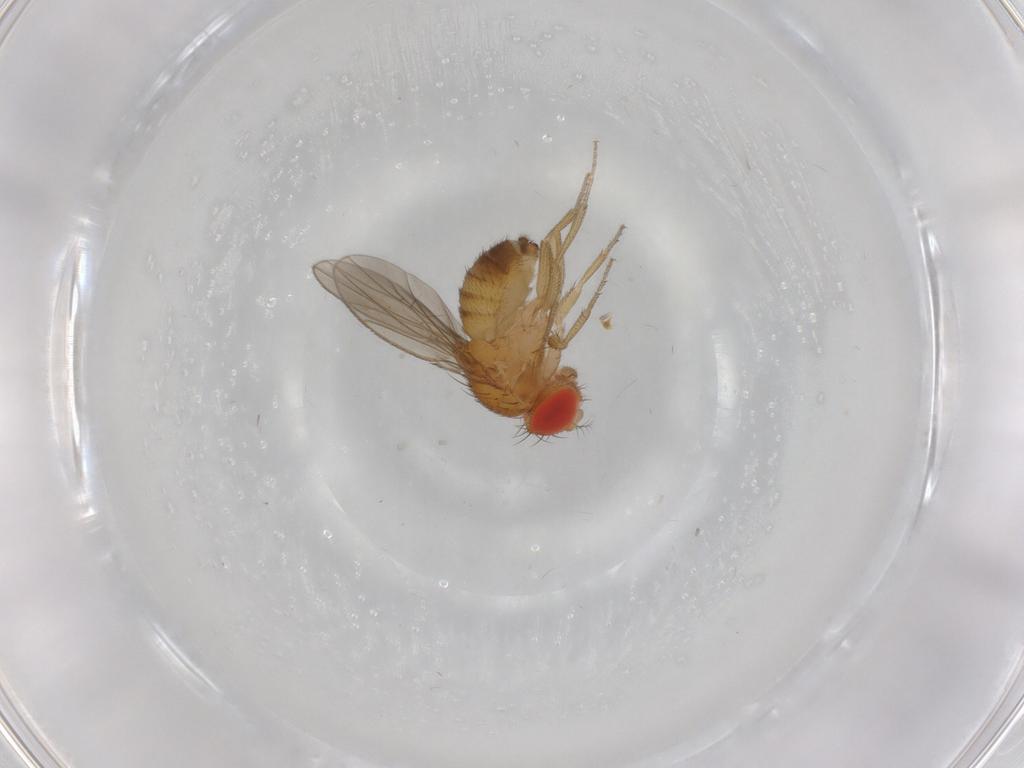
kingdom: Animalia
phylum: Arthropoda
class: Insecta
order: Diptera
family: Drosophilidae
